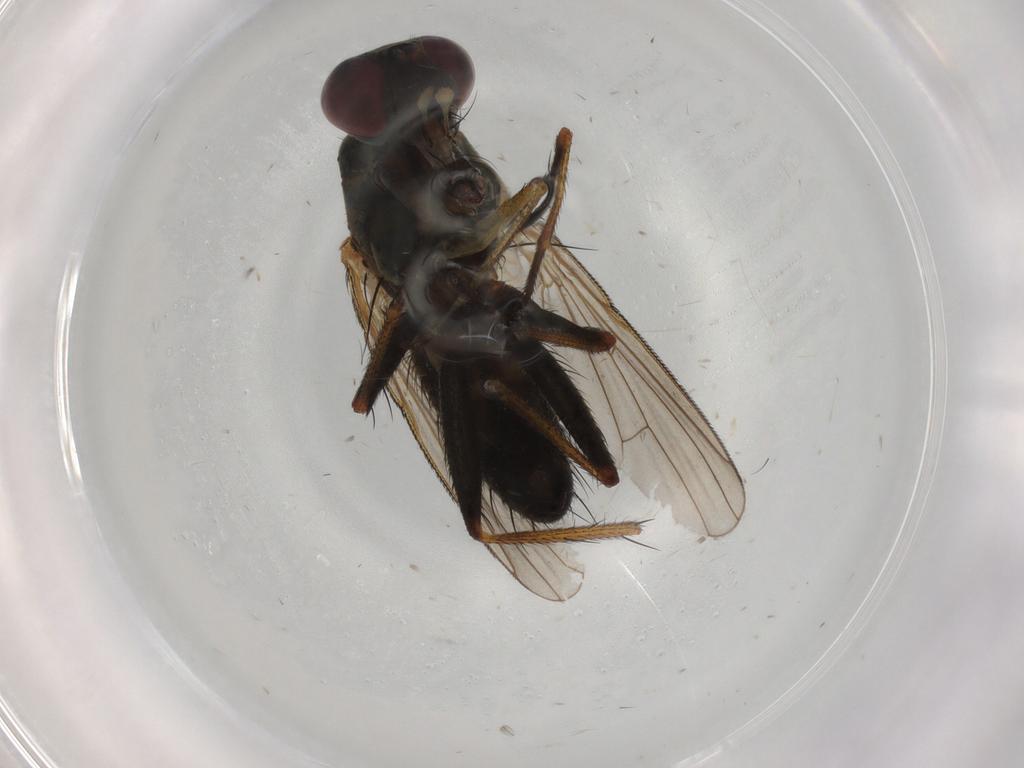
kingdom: Animalia
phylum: Arthropoda
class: Insecta
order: Diptera
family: Muscidae
